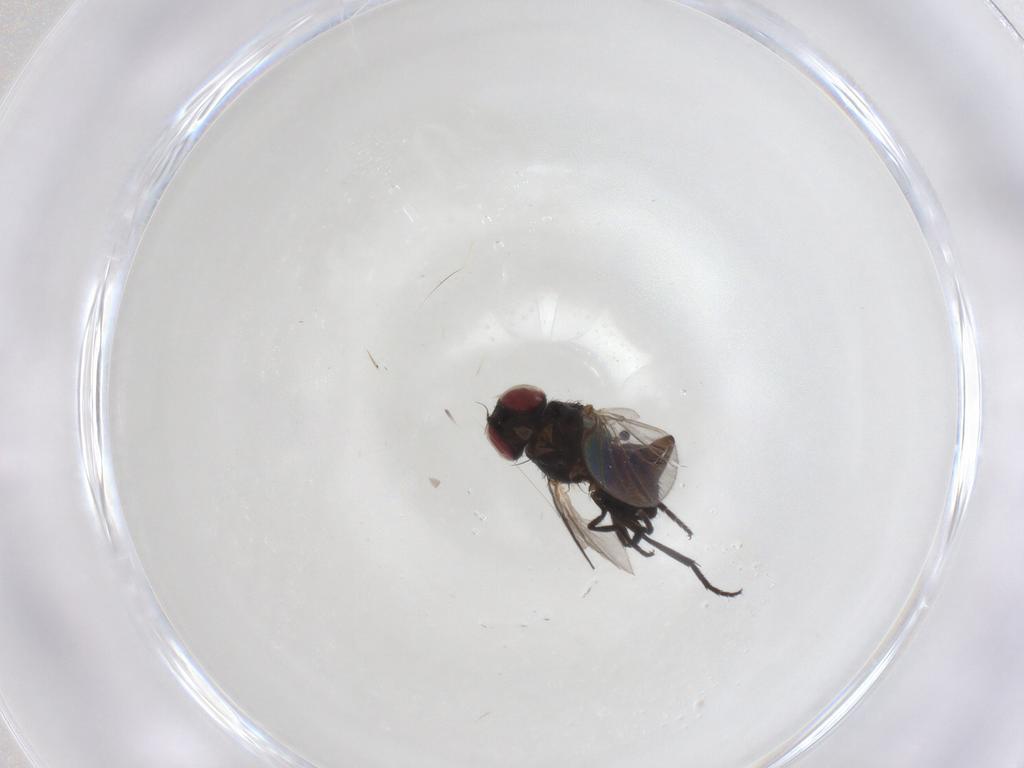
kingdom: Animalia
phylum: Arthropoda
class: Insecta
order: Diptera
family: Agromyzidae
